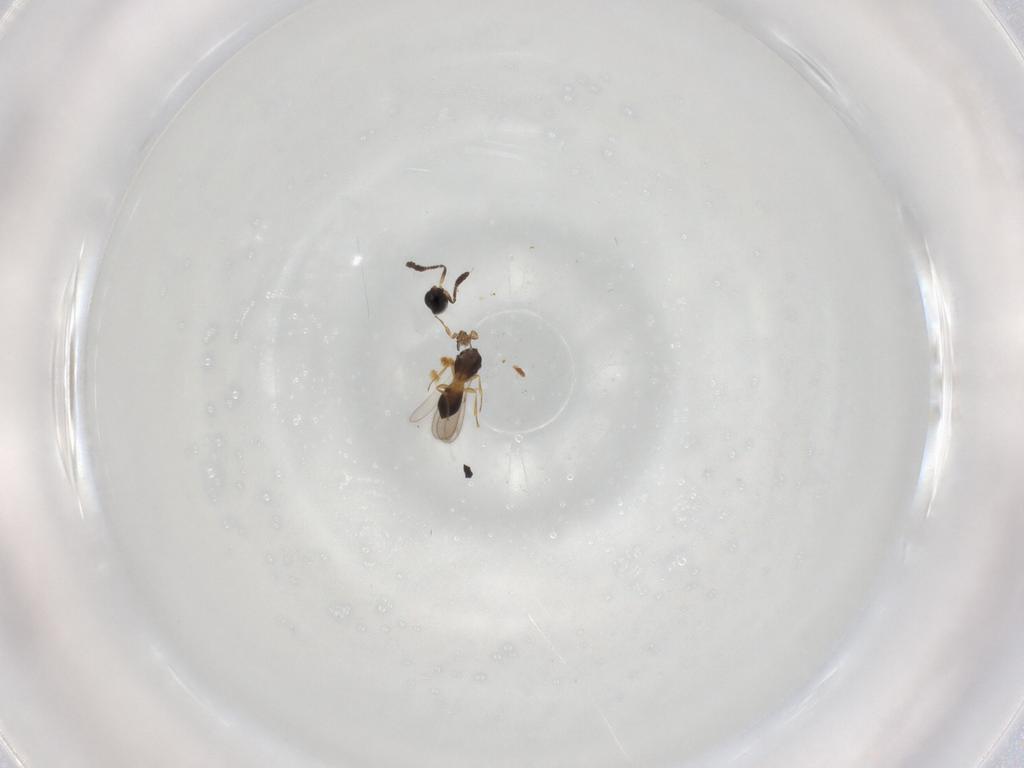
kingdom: Animalia
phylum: Arthropoda
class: Insecta
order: Hymenoptera
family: Scelionidae
